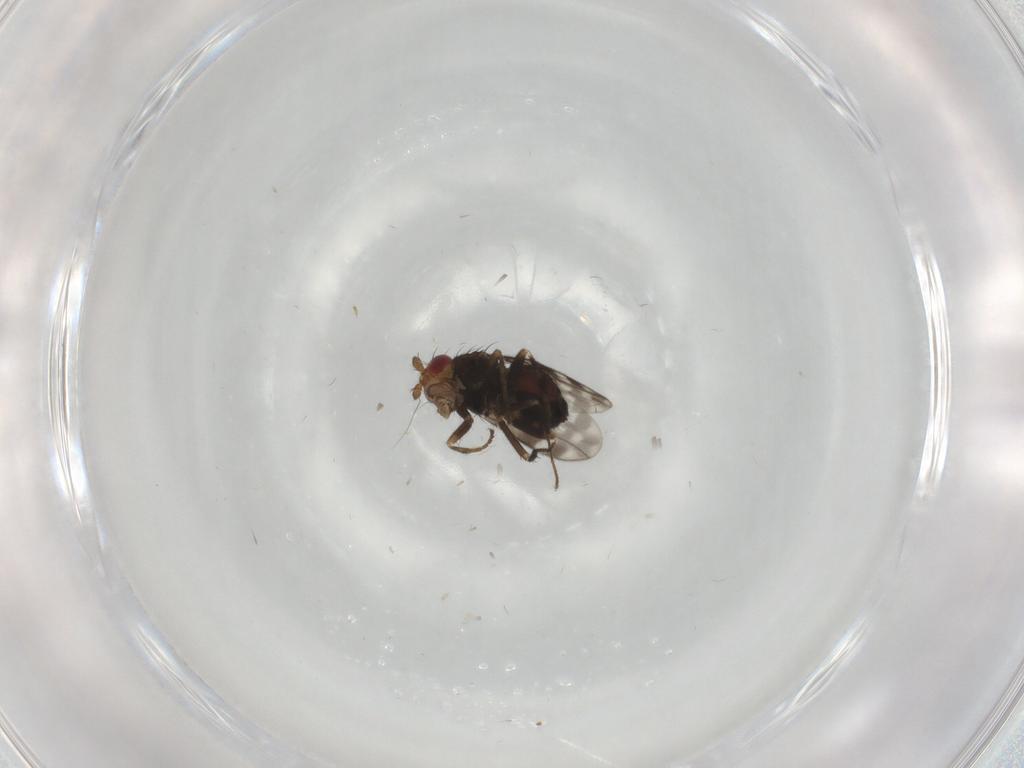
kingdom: Animalia
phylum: Arthropoda
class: Insecta
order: Diptera
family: Sphaeroceridae
